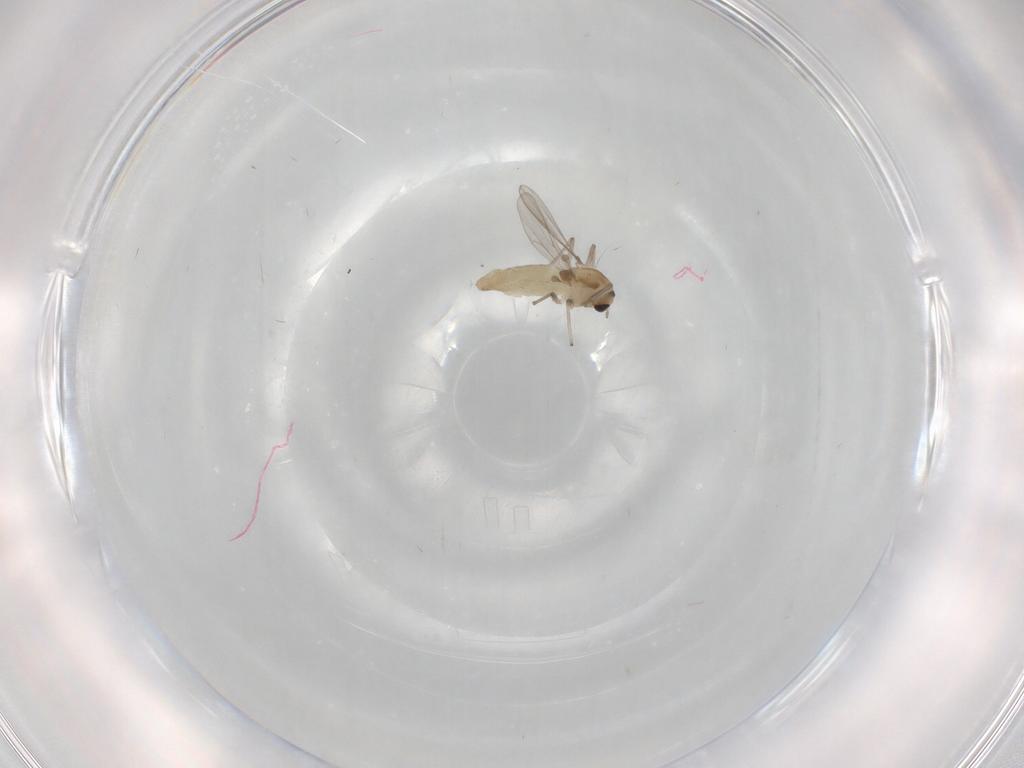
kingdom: Animalia
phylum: Arthropoda
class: Insecta
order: Diptera
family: Chironomidae
